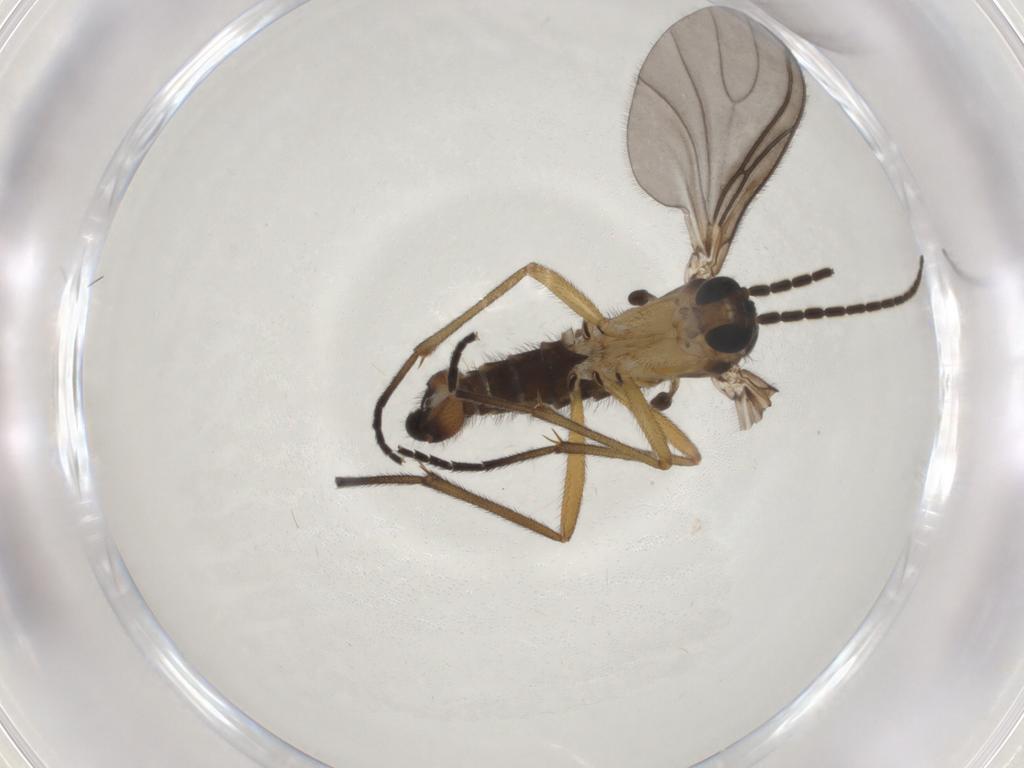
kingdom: Animalia
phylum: Arthropoda
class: Insecta
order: Diptera
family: Sciaridae
